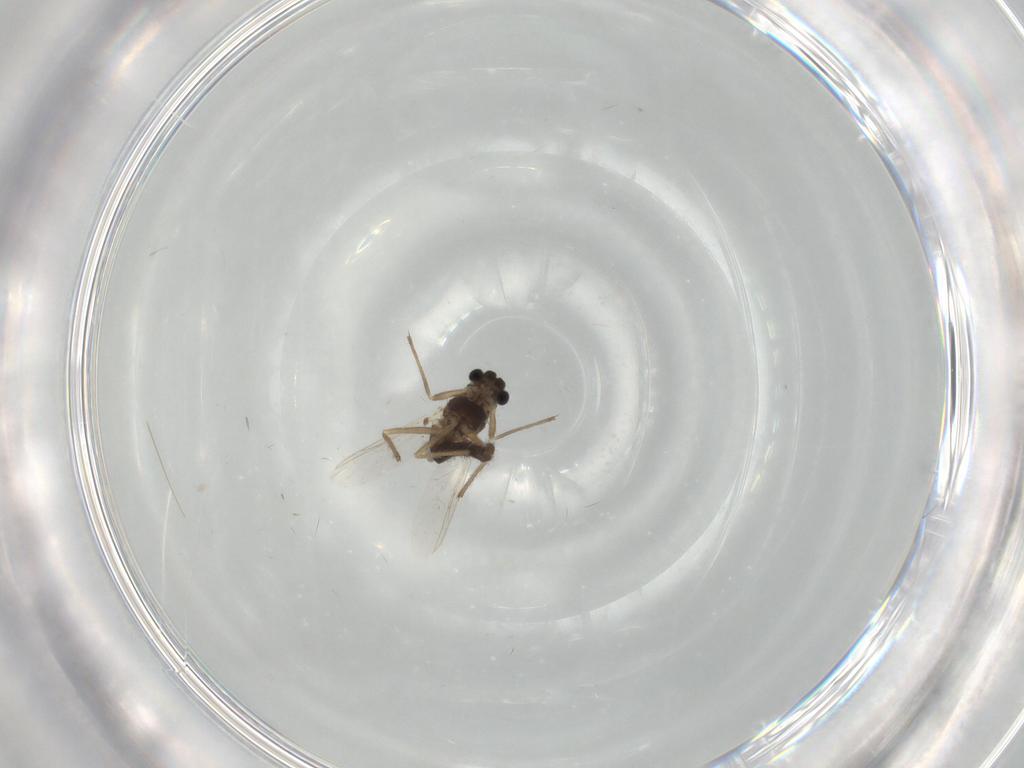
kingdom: Animalia
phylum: Arthropoda
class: Insecta
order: Diptera
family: Chironomidae
